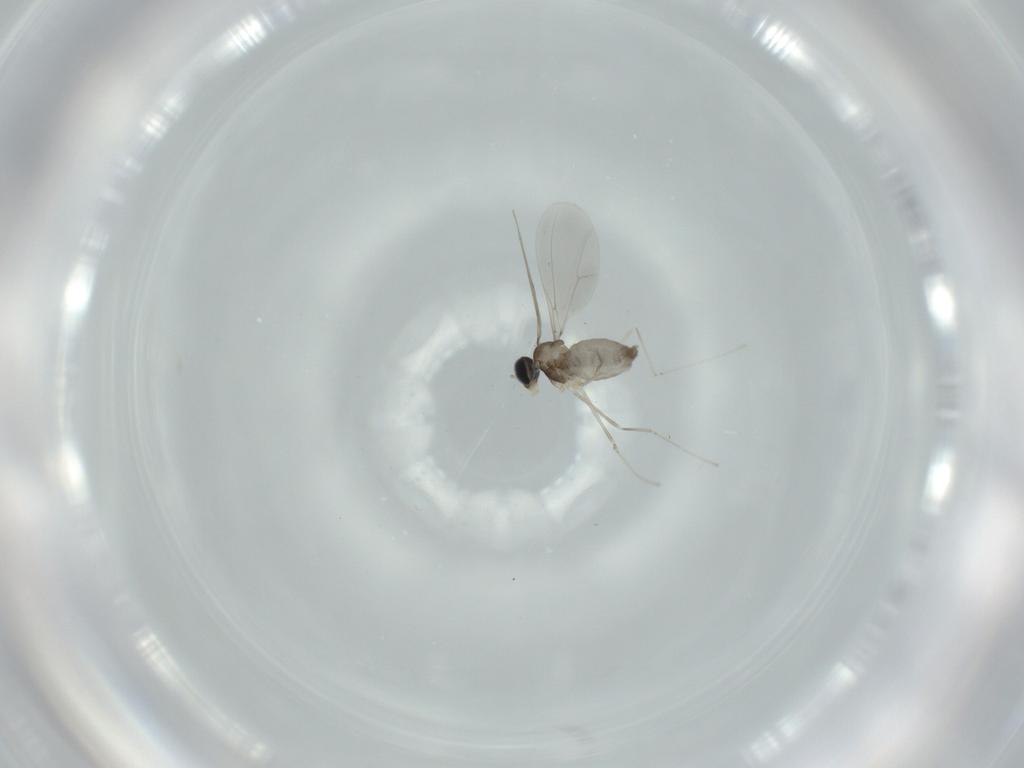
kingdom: Animalia
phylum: Arthropoda
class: Insecta
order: Diptera
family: Cecidomyiidae
